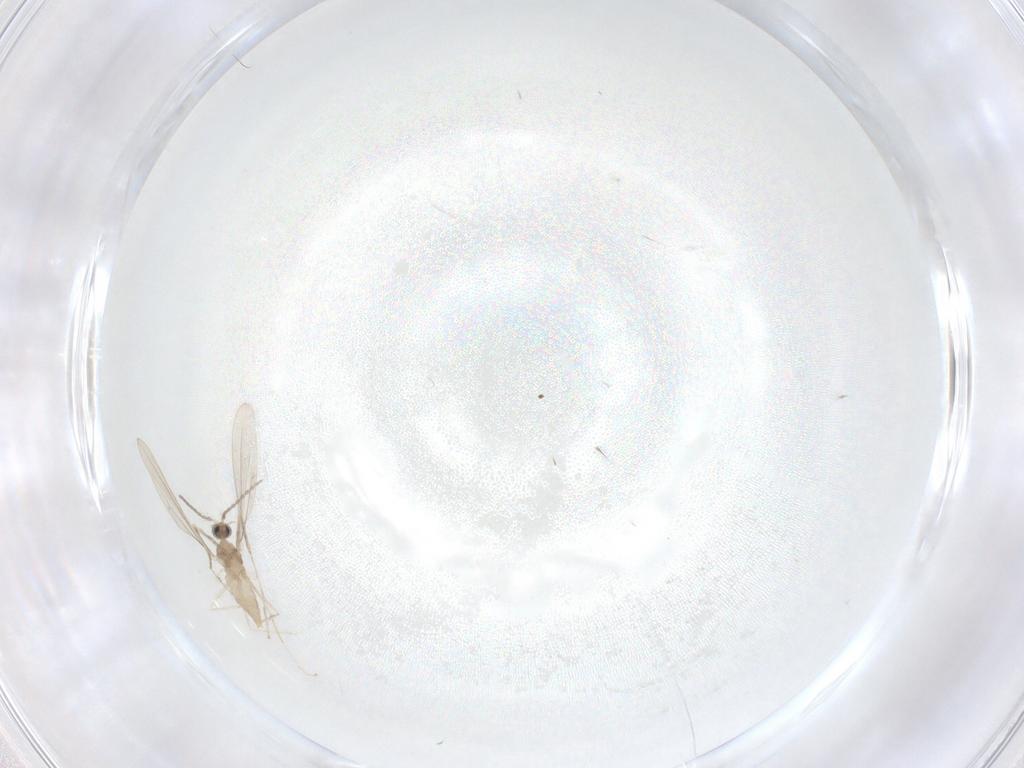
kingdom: Animalia
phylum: Arthropoda
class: Insecta
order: Diptera
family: Cecidomyiidae
